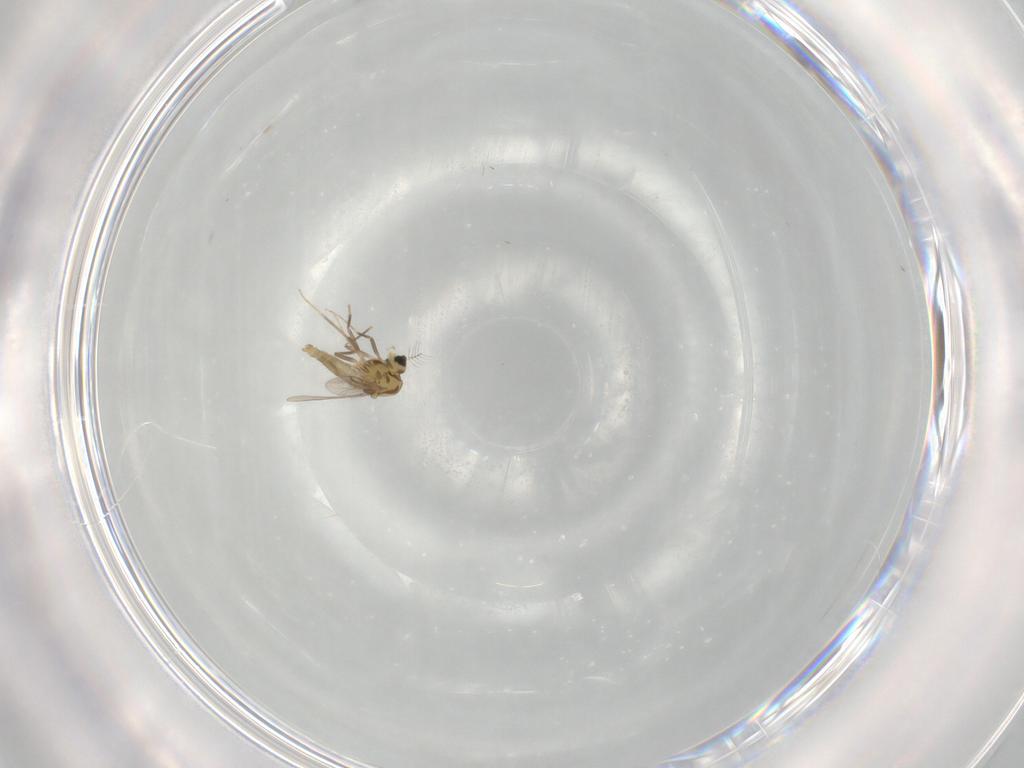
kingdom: Animalia
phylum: Arthropoda
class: Insecta
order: Diptera
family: Chironomidae
